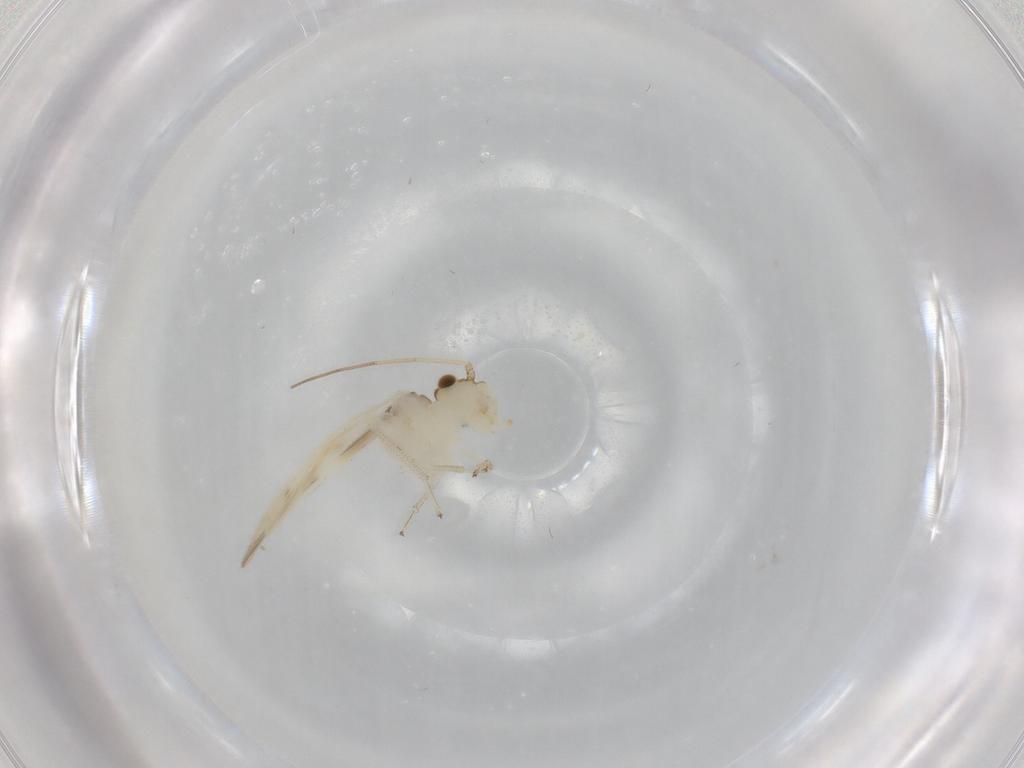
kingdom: Animalia
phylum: Arthropoda
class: Insecta
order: Psocodea
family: Caeciliusidae
